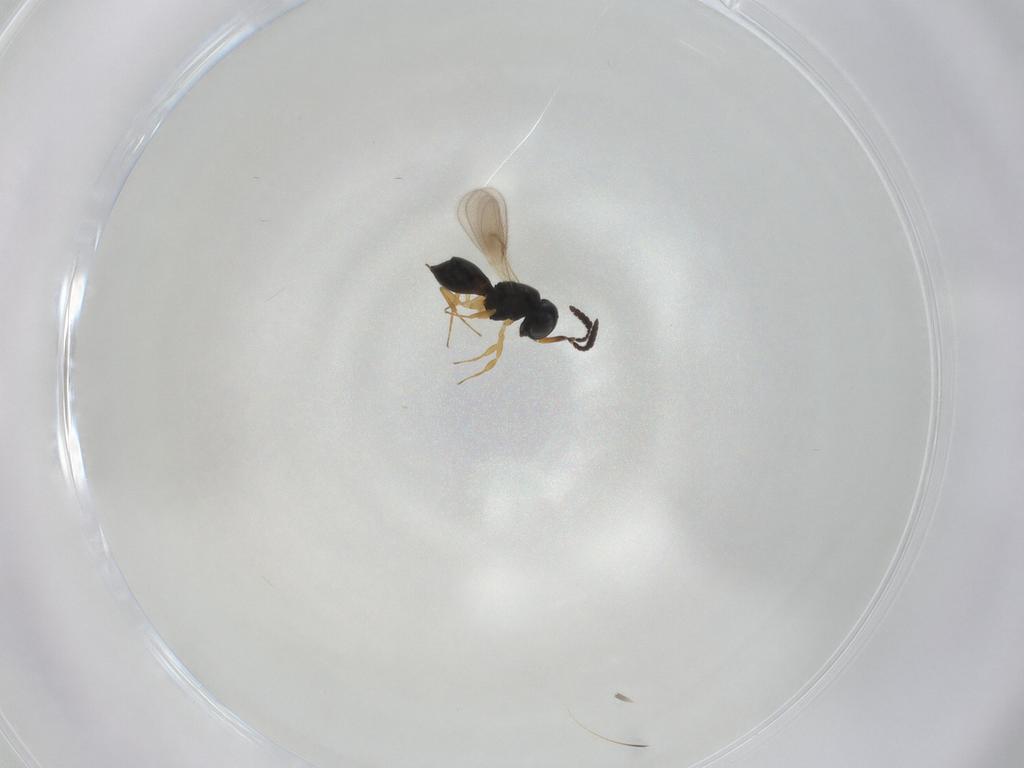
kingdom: Animalia
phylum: Arthropoda
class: Insecta
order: Hymenoptera
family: Scelionidae
